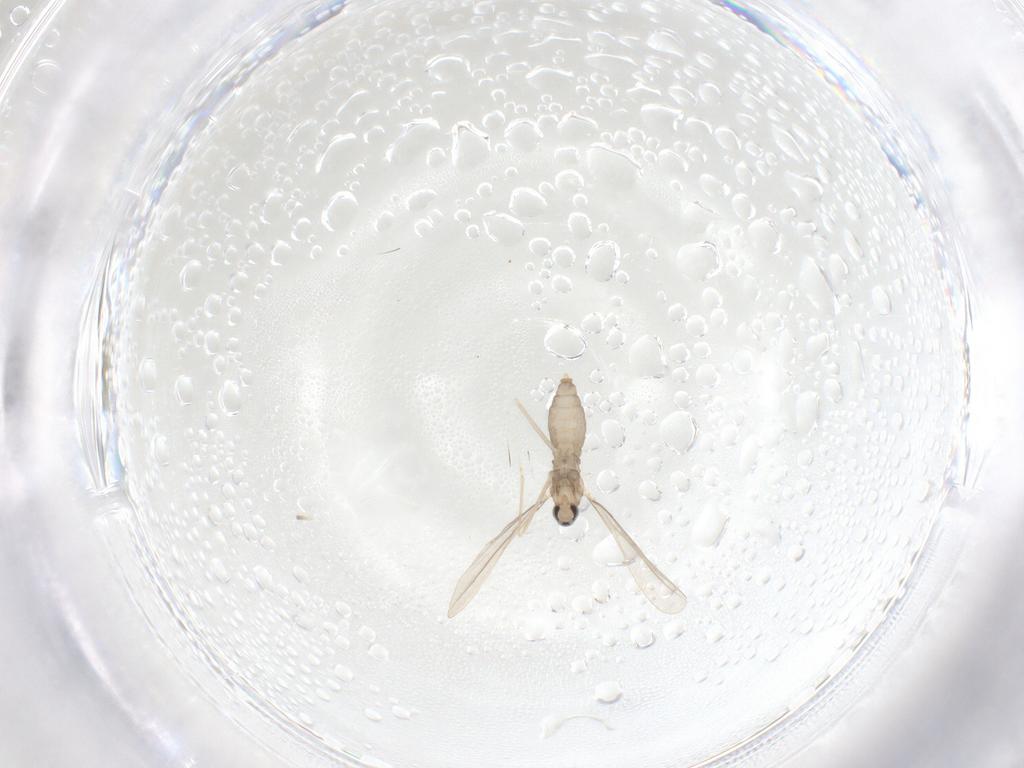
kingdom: Animalia
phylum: Arthropoda
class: Insecta
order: Diptera
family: Cecidomyiidae
